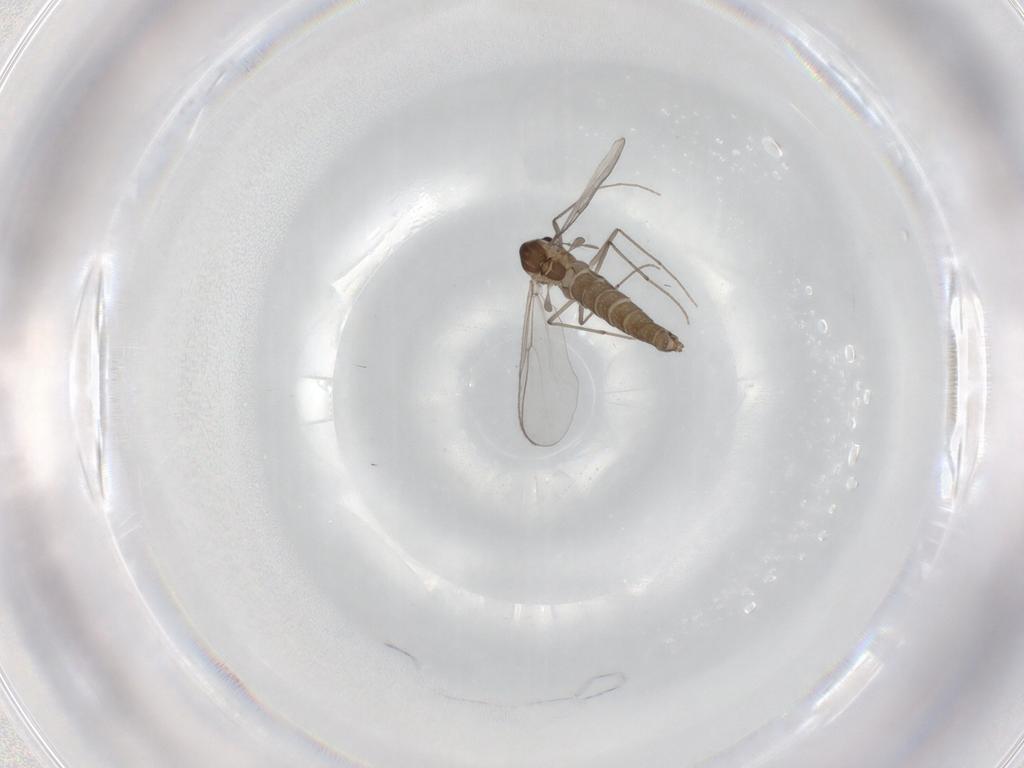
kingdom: Animalia
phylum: Arthropoda
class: Insecta
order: Diptera
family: Chironomidae
